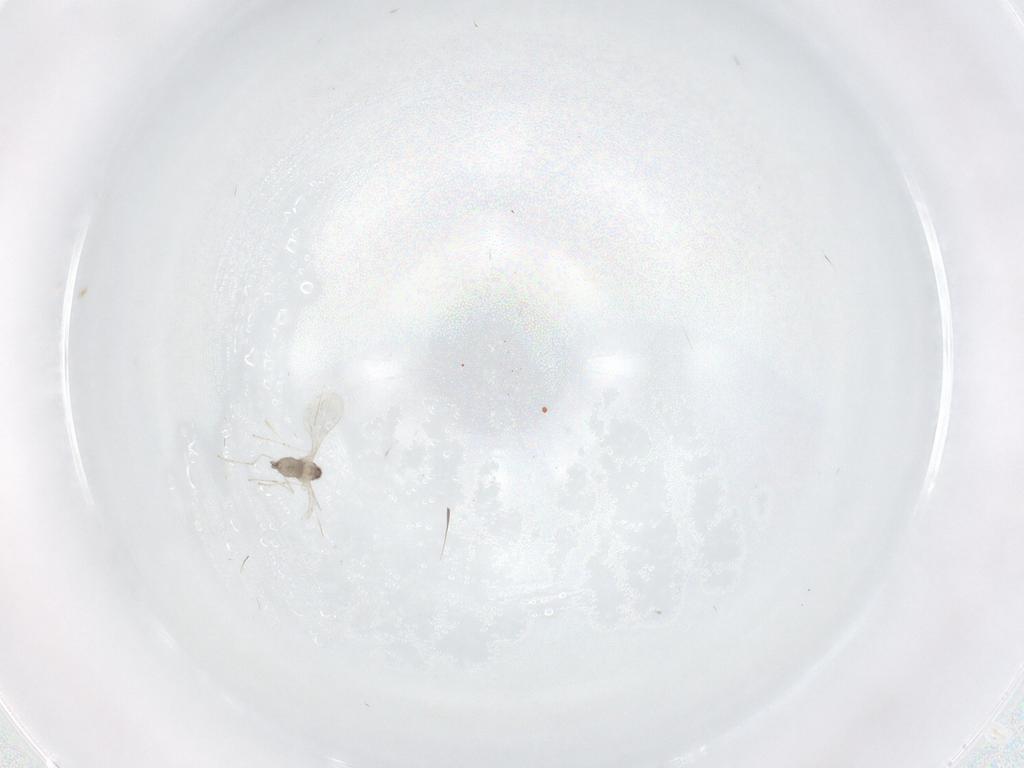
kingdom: Animalia
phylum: Arthropoda
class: Insecta
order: Diptera
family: Cecidomyiidae
